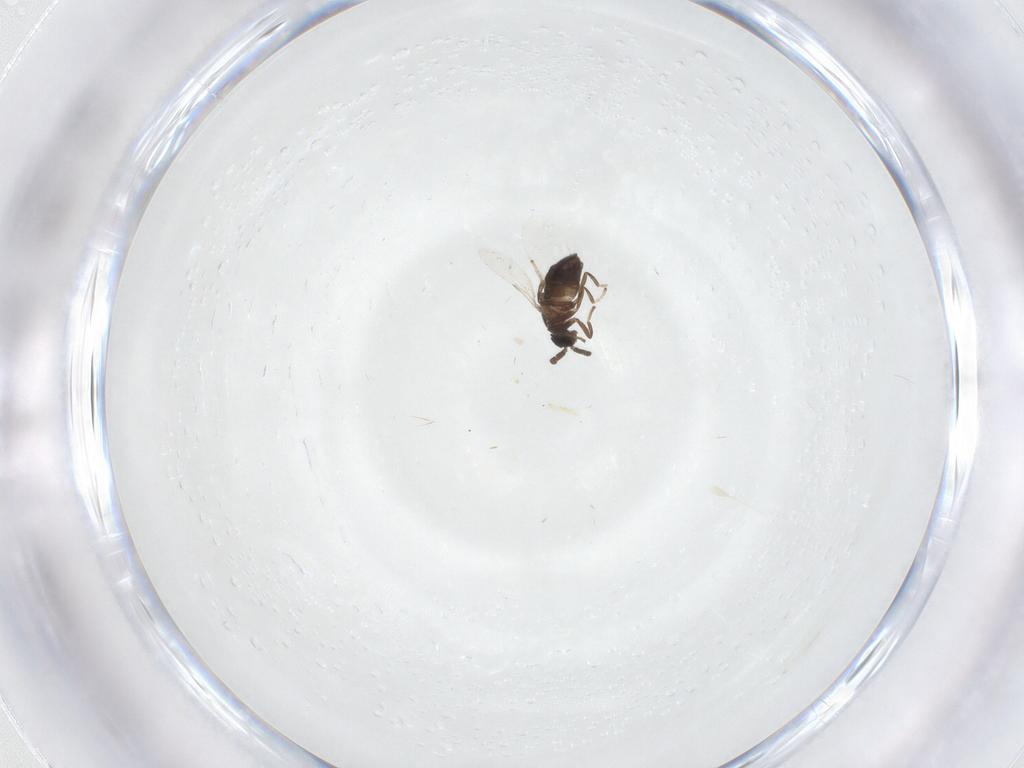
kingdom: Animalia
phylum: Arthropoda
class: Insecta
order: Diptera
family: Scatopsidae
